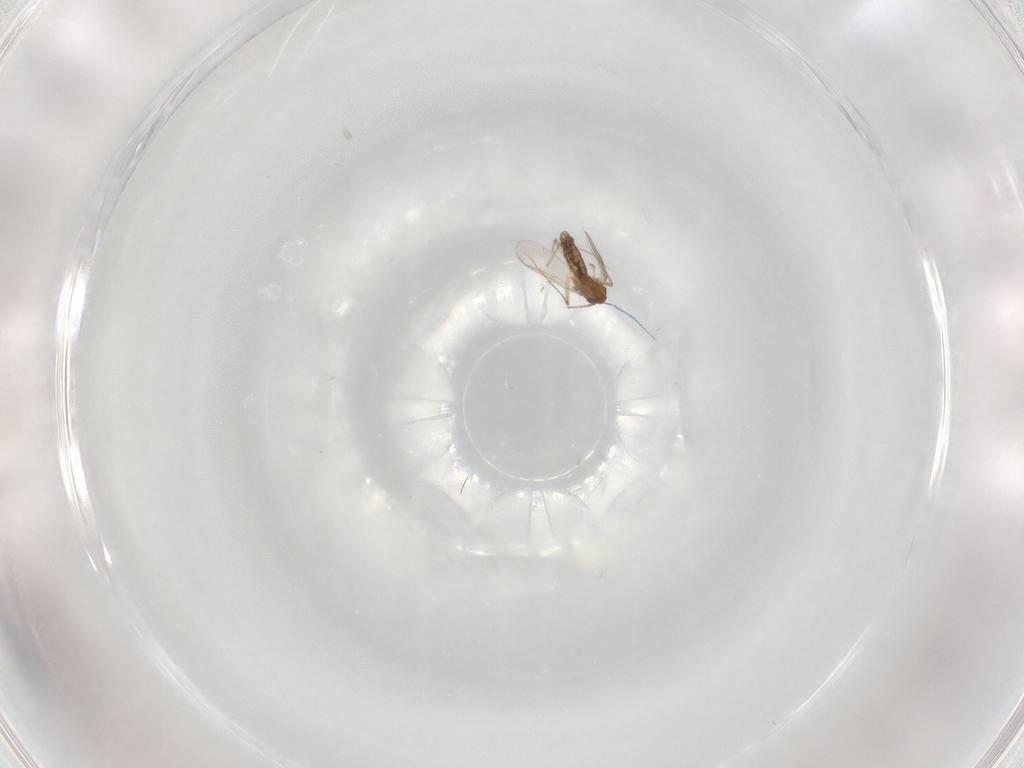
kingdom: Animalia
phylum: Arthropoda
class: Insecta
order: Diptera
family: Chironomidae
